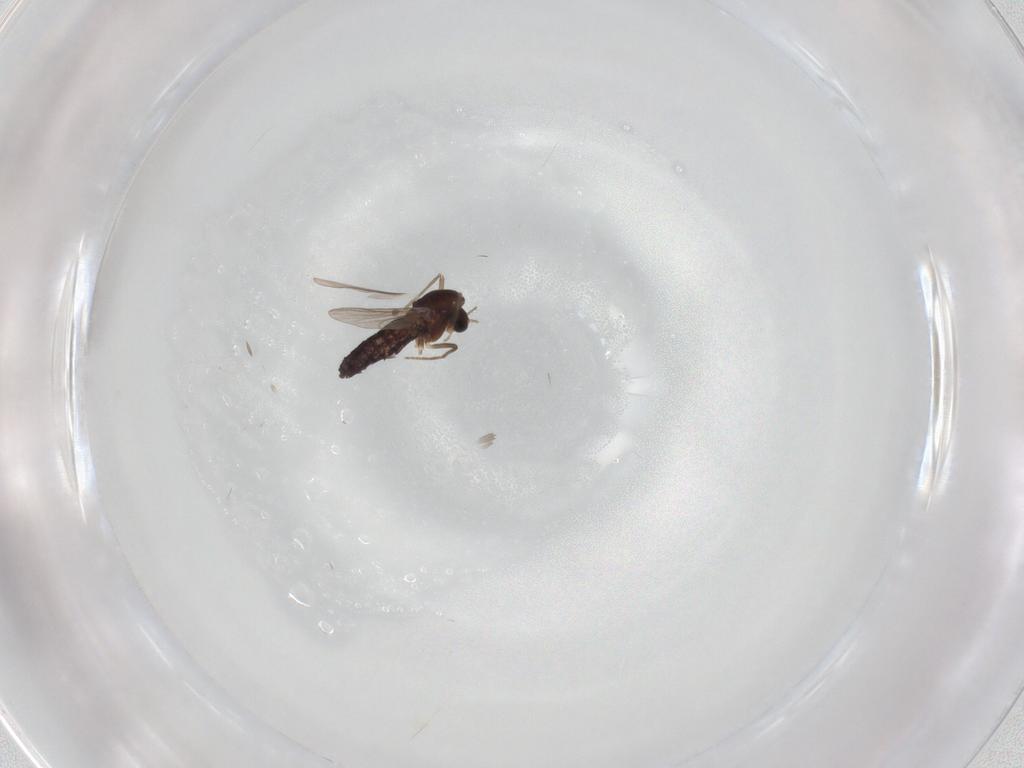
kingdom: Animalia
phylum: Arthropoda
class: Insecta
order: Diptera
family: Chironomidae
